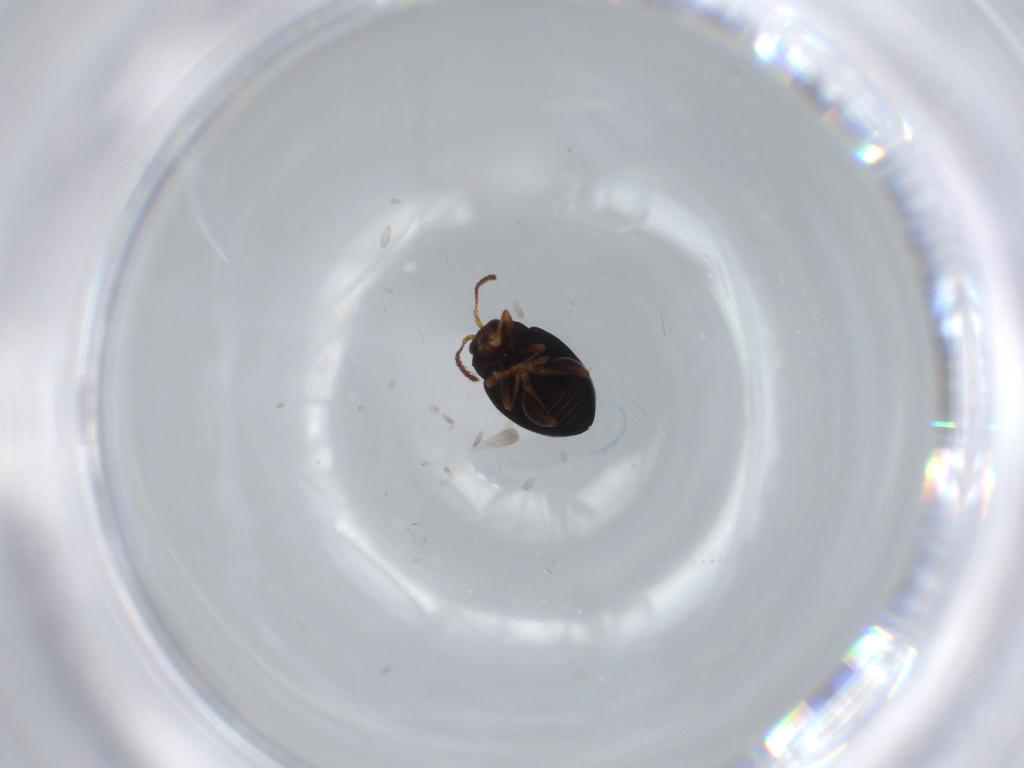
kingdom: Animalia
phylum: Arthropoda
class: Insecta
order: Coleoptera
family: Chrysomelidae
